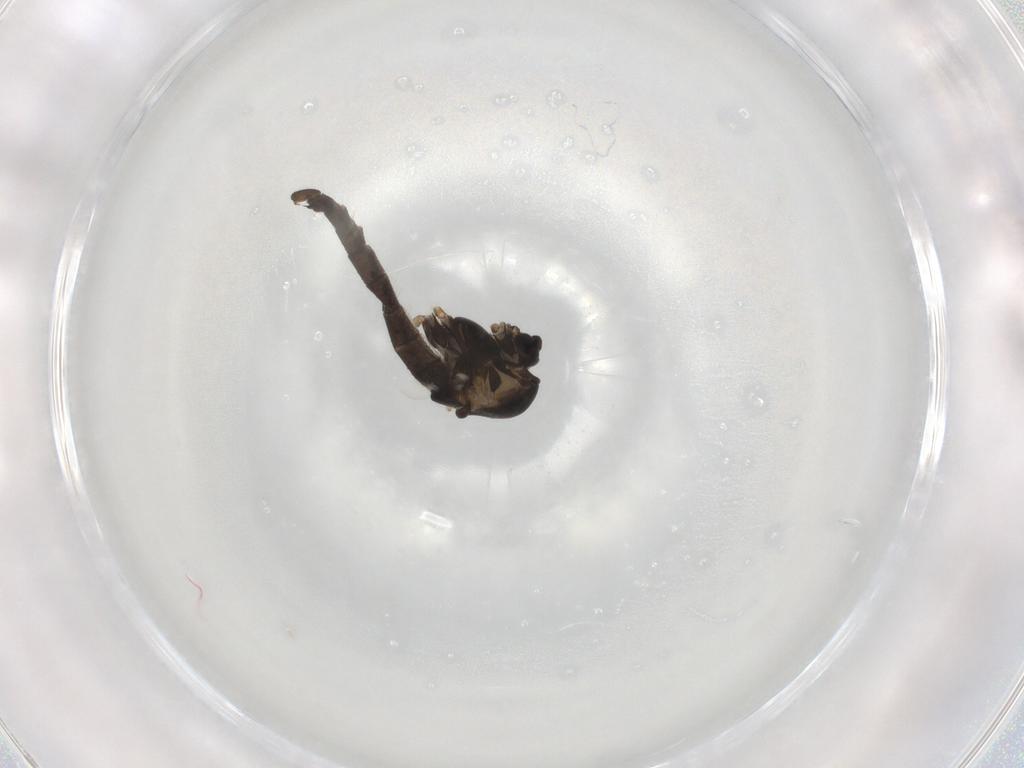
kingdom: Animalia
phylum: Arthropoda
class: Insecta
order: Diptera
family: Chironomidae
